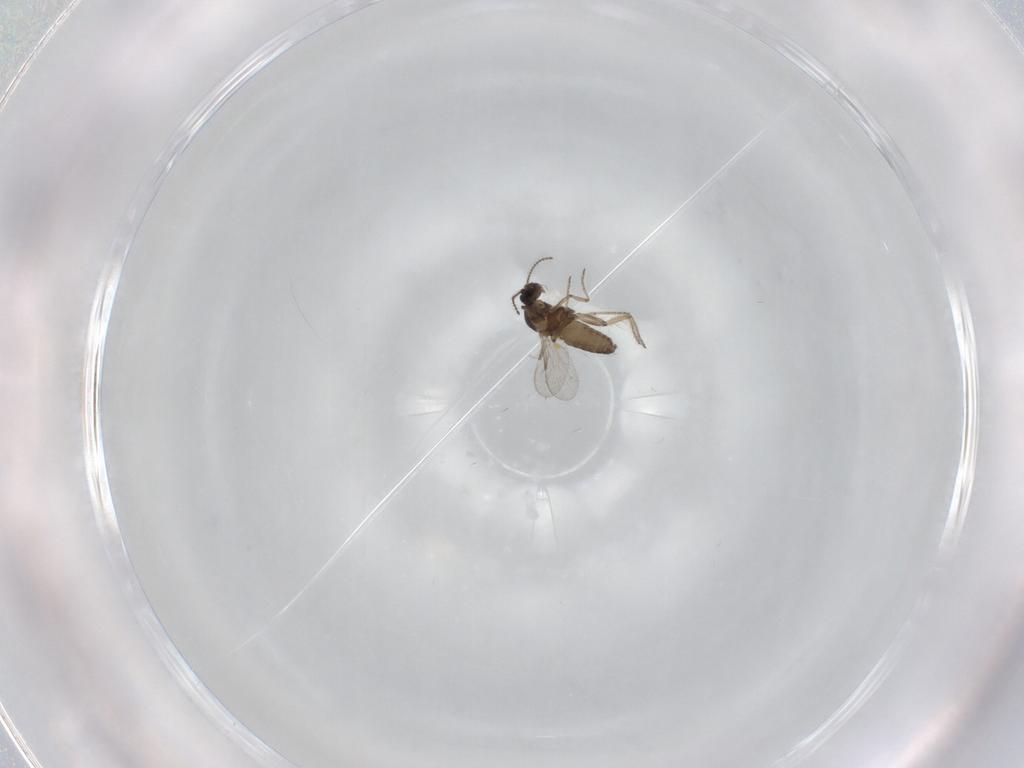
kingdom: Animalia
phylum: Arthropoda
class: Insecta
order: Diptera
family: Ceratopogonidae
